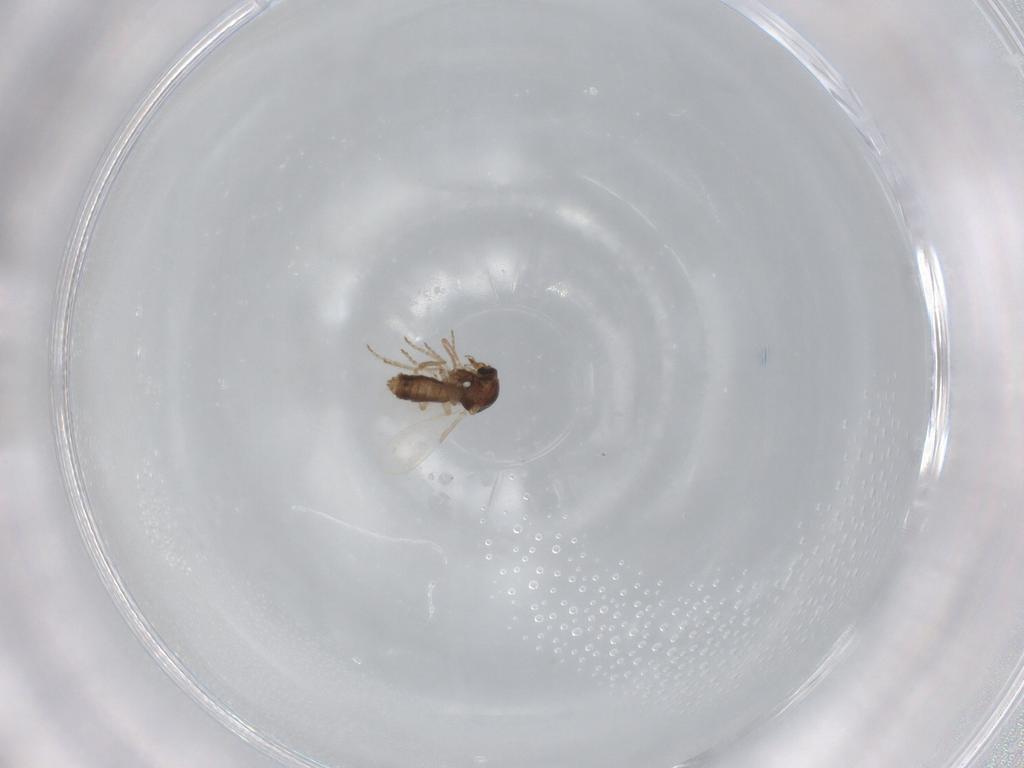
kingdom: Animalia
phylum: Arthropoda
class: Insecta
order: Diptera
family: Ceratopogonidae
